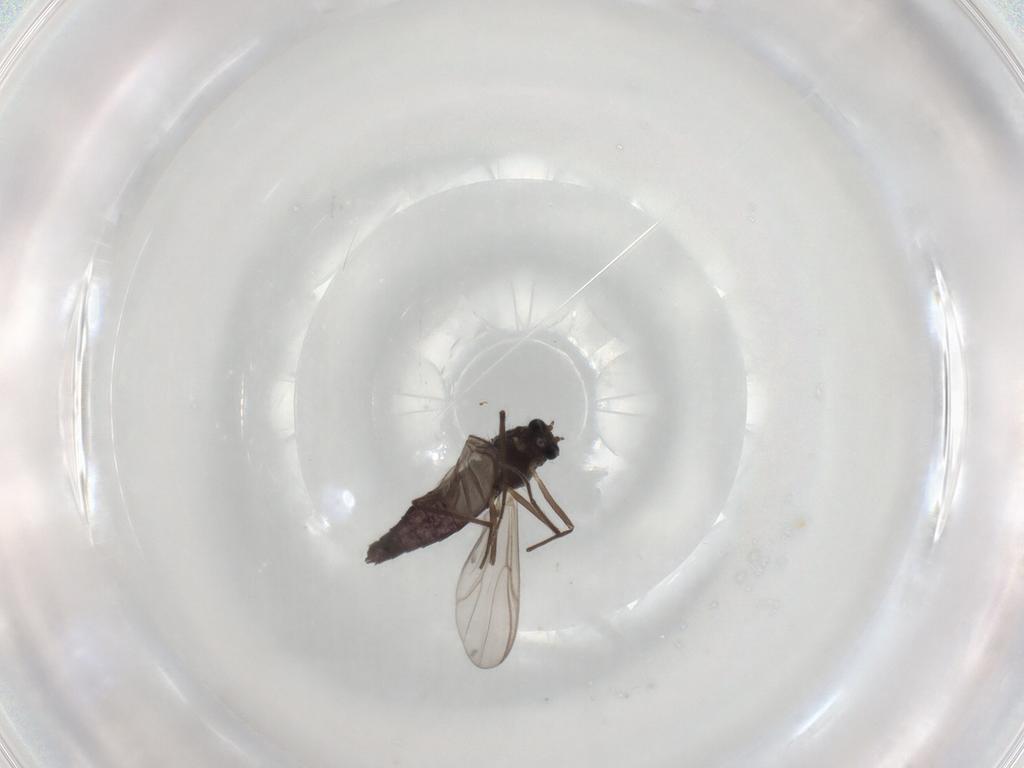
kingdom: Animalia
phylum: Arthropoda
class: Insecta
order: Diptera
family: Chironomidae
